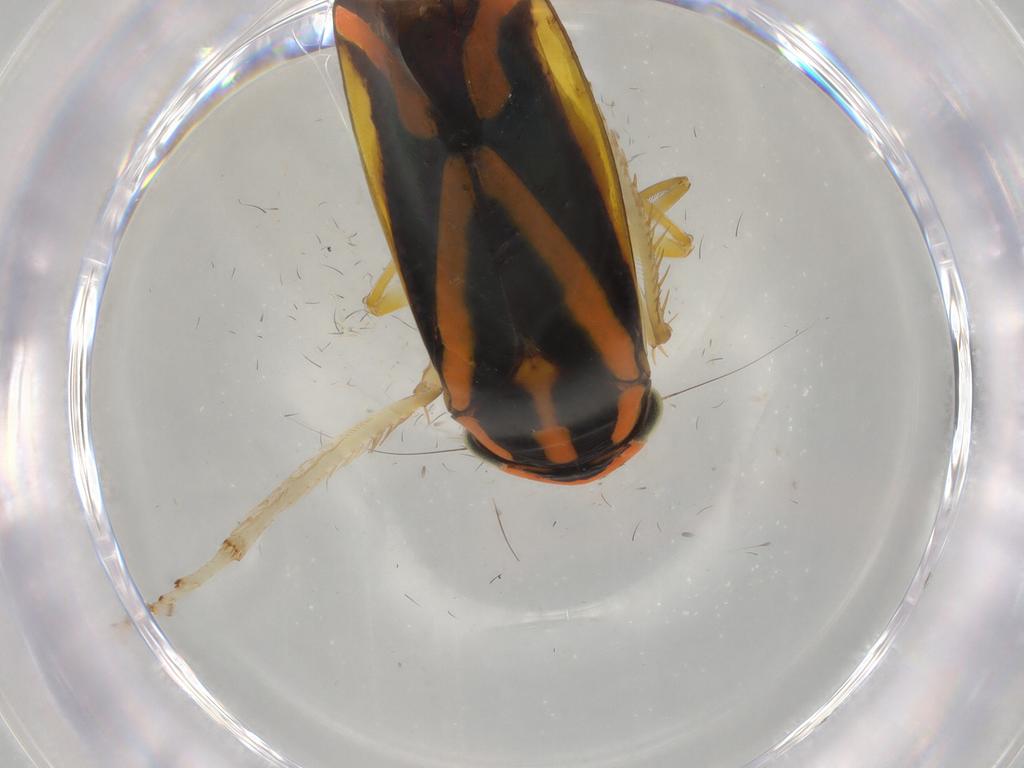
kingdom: Animalia
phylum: Arthropoda
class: Insecta
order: Hemiptera
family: Cicadellidae
